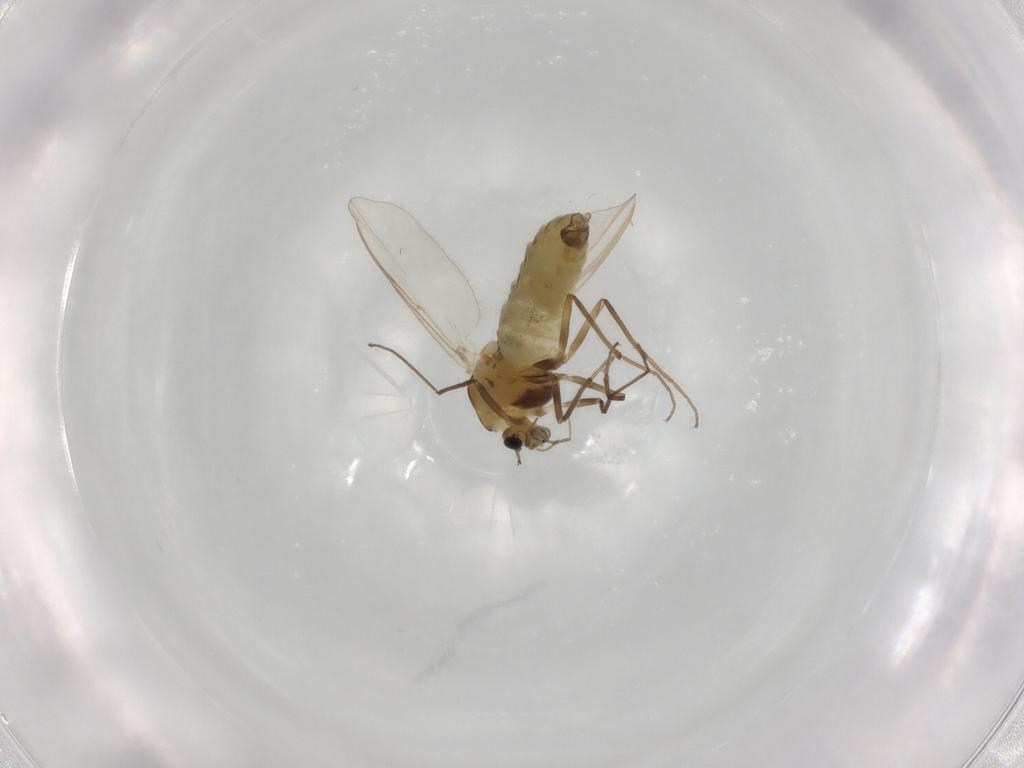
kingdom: Animalia
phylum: Arthropoda
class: Insecta
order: Diptera
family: Chironomidae
